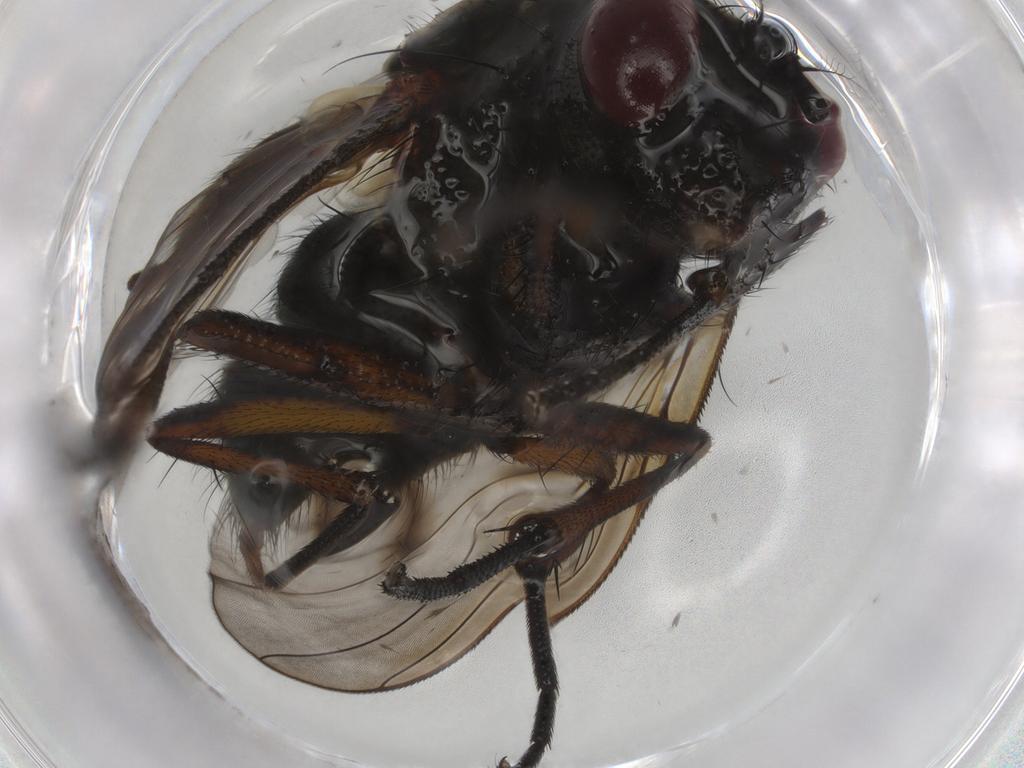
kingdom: Animalia
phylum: Arthropoda
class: Insecta
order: Diptera
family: Muscidae
